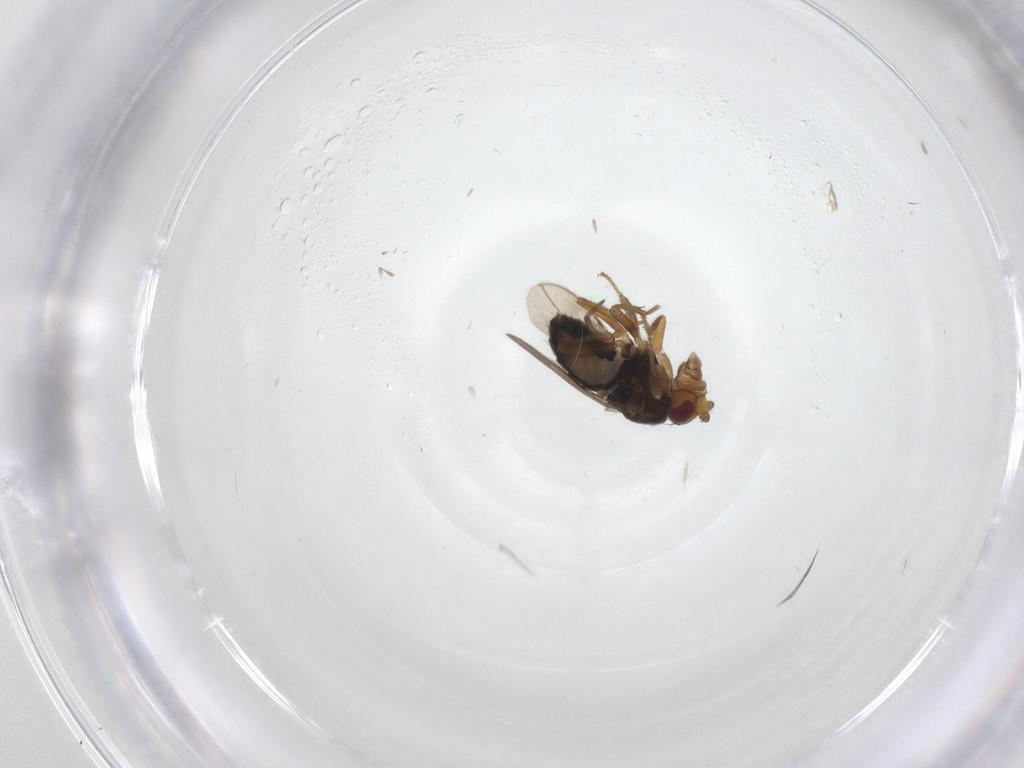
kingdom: Animalia
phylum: Arthropoda
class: Insecta
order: Diptera
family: Sphaeroceridae
